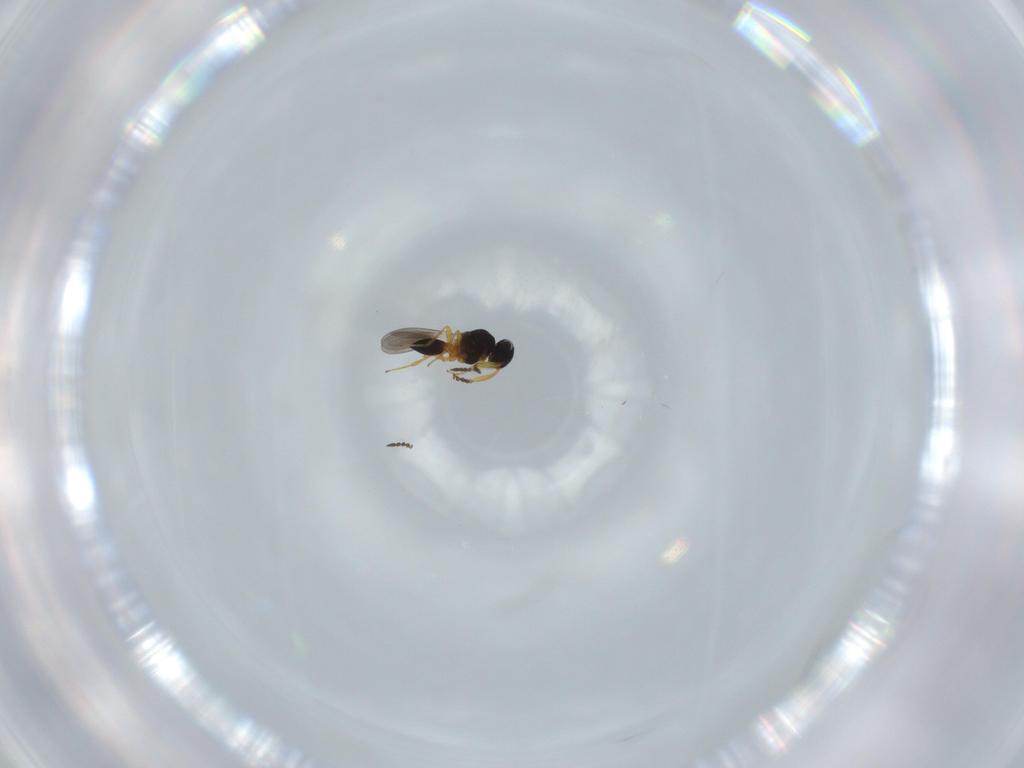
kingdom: Animalia
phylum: Arthropoda
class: Insecta
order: Hymenoptera
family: Platygastridae
